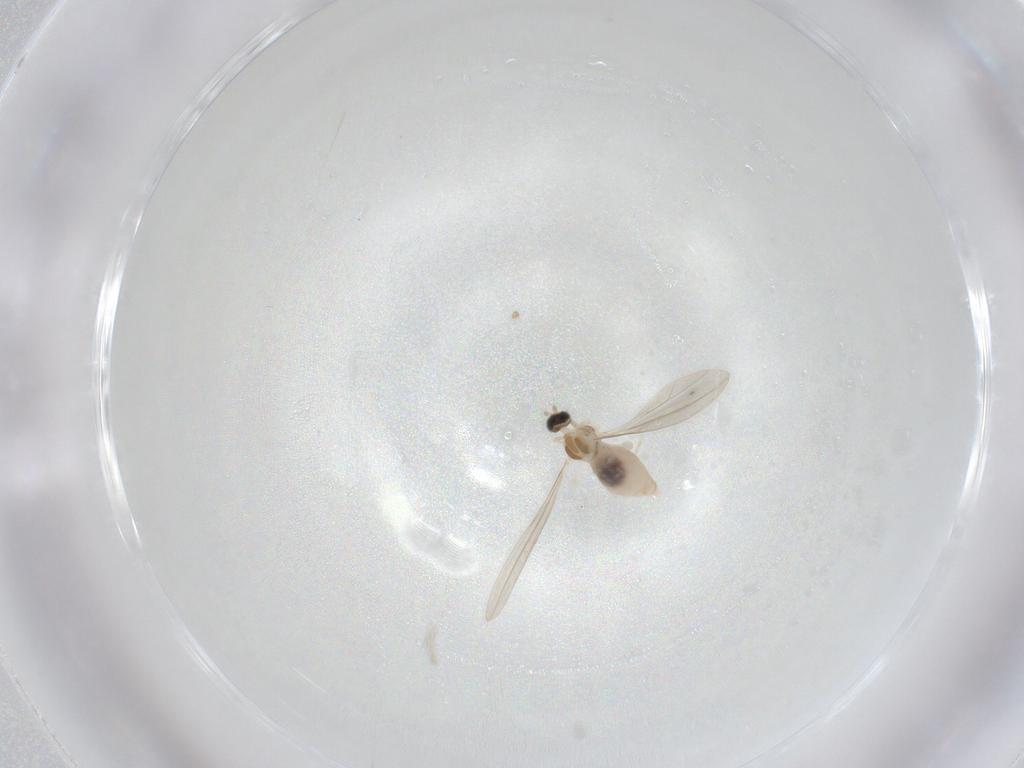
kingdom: Animalia
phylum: Arthropoda
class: Insecta
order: Diptera
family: Cecidomyiidae
